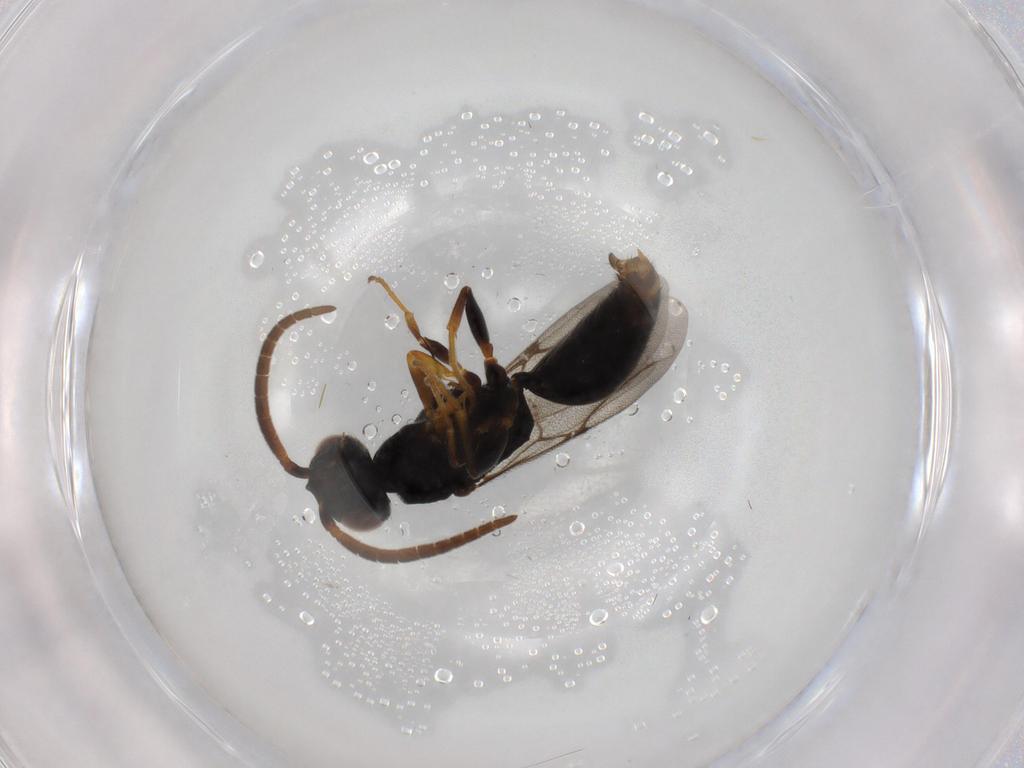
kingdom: Animalia
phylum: Arthropoda
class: Insecta
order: Hymenoptera
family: Bethylidae
